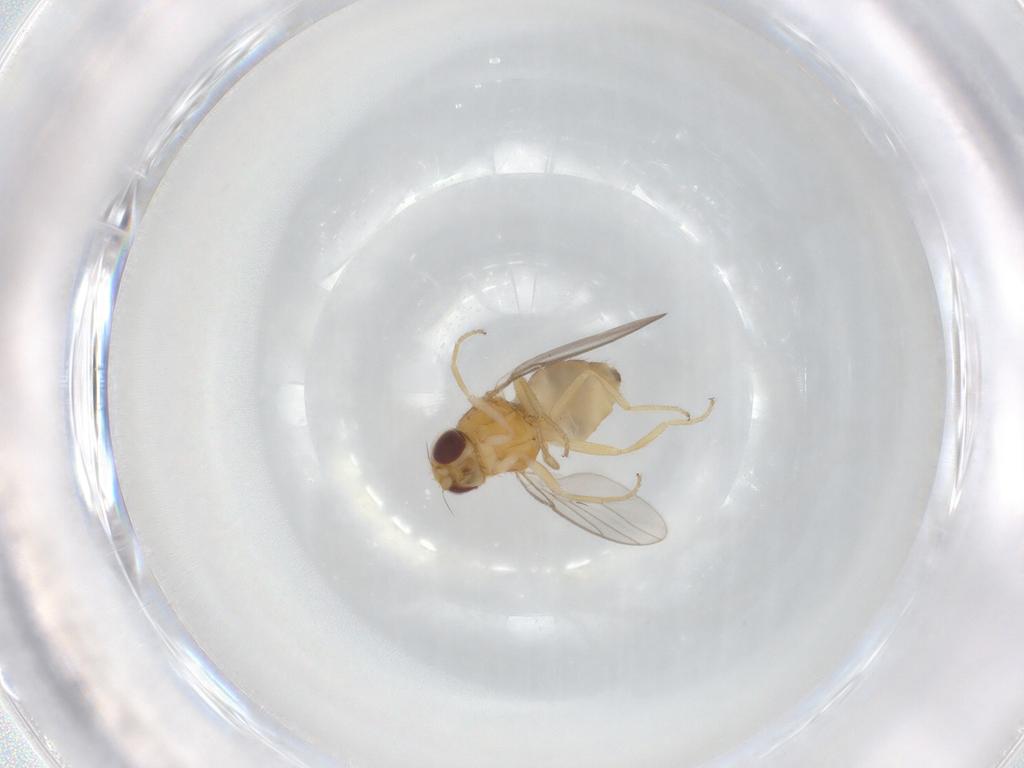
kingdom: Animalia
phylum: Arthropoda
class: Insecta
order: Diptera
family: Chloropidae
